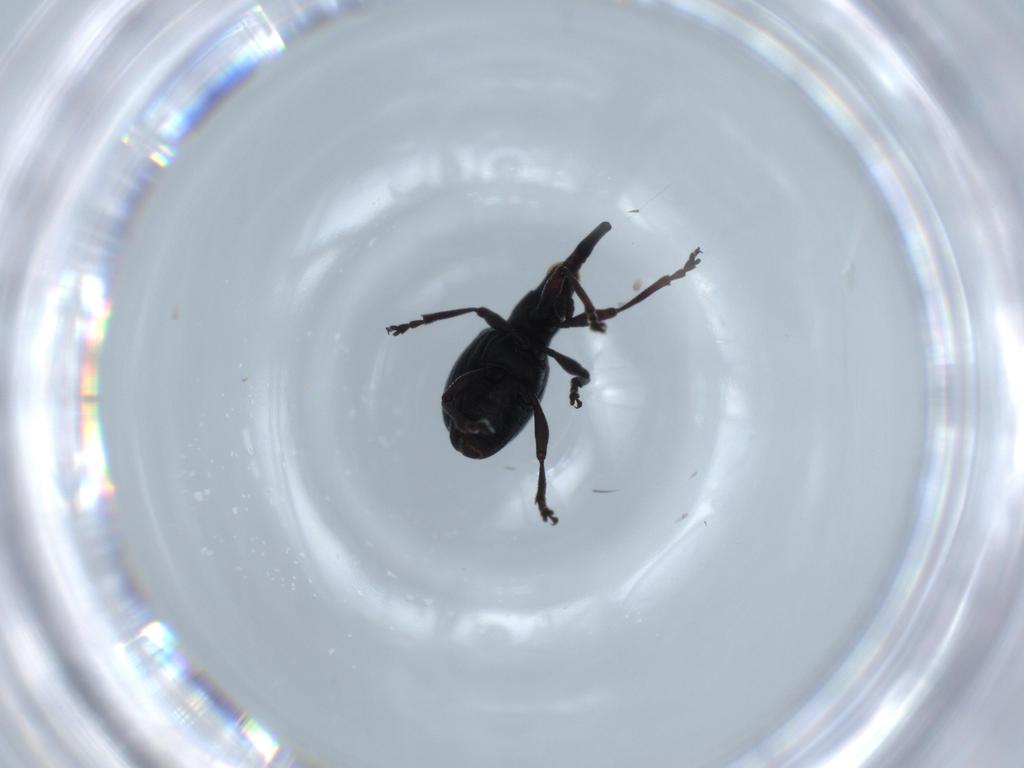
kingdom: Animalia
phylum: Arthropoda
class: Insecta
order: Coleoptera
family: Brentidae
